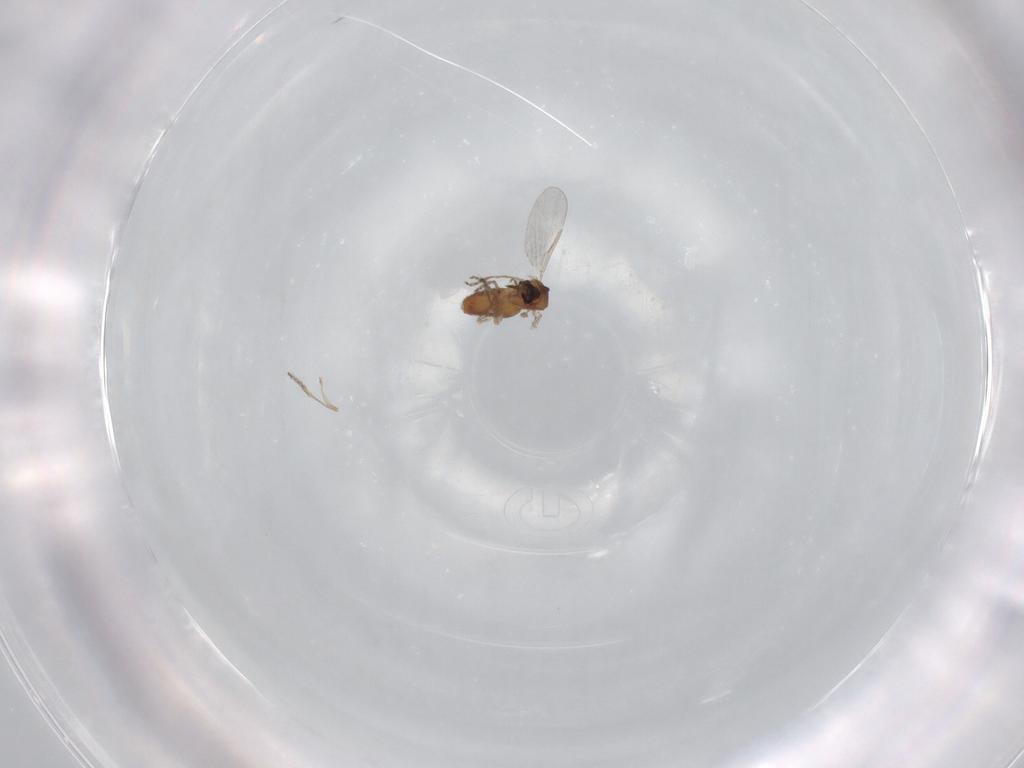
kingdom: Animalia
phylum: Arthropoda
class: Insecta
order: Diptera
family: Ceratopogonidae
